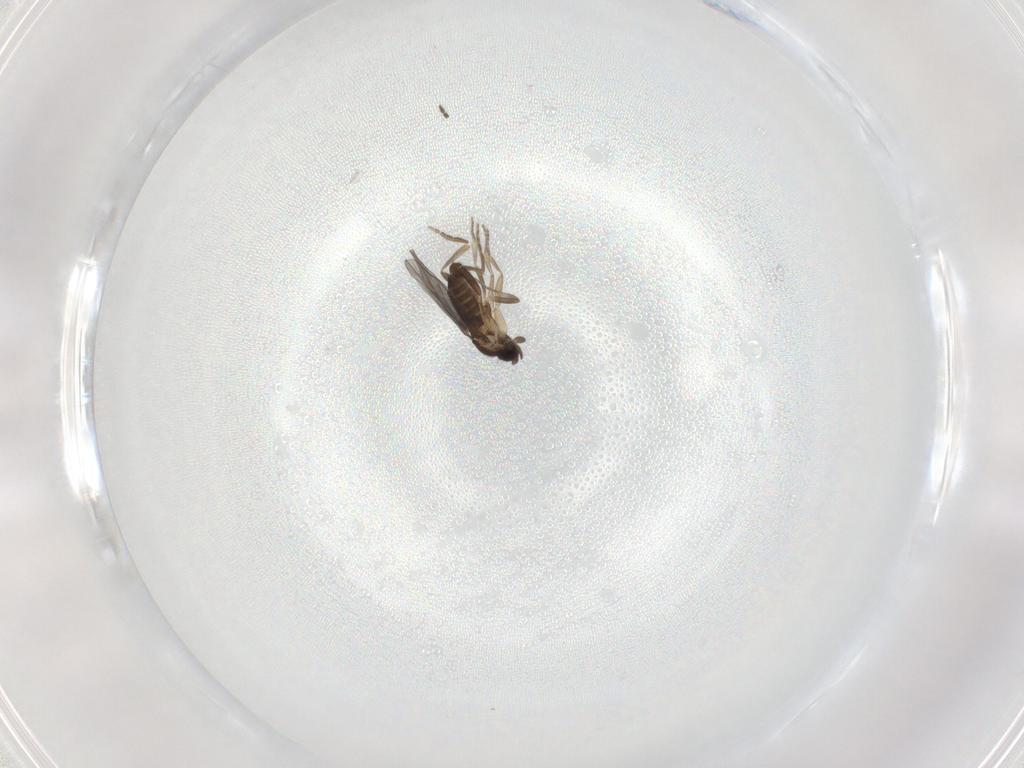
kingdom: Animalia
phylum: Arthropoda
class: Insecta
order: Diptera
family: Phoridae
